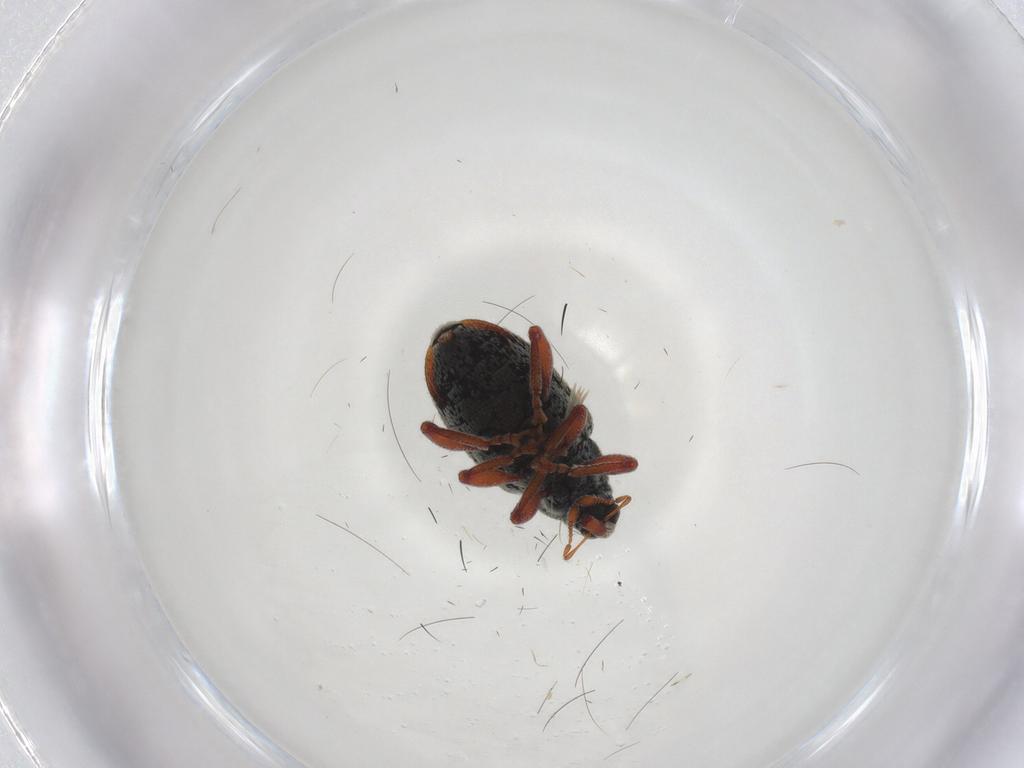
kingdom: Animalia
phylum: Arthropoda
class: Insecta
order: Coleoptera
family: Curculionidae
